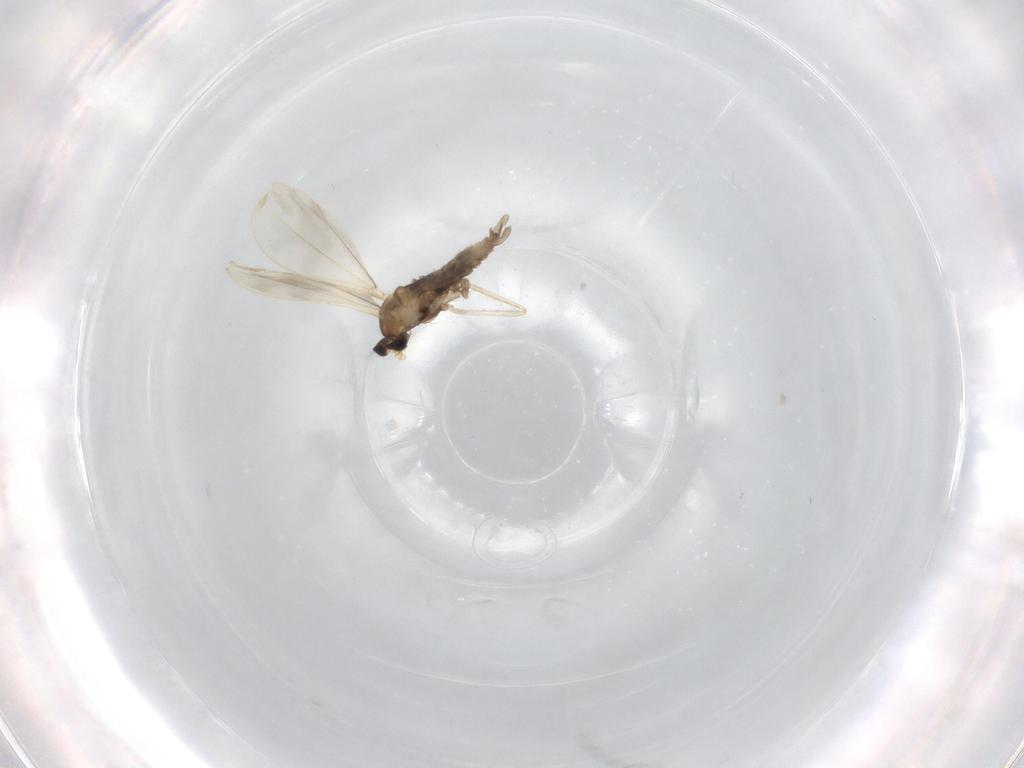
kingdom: Animalia
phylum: Arthropoda
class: Insecta
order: Diptera
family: Cecidomyiidae
